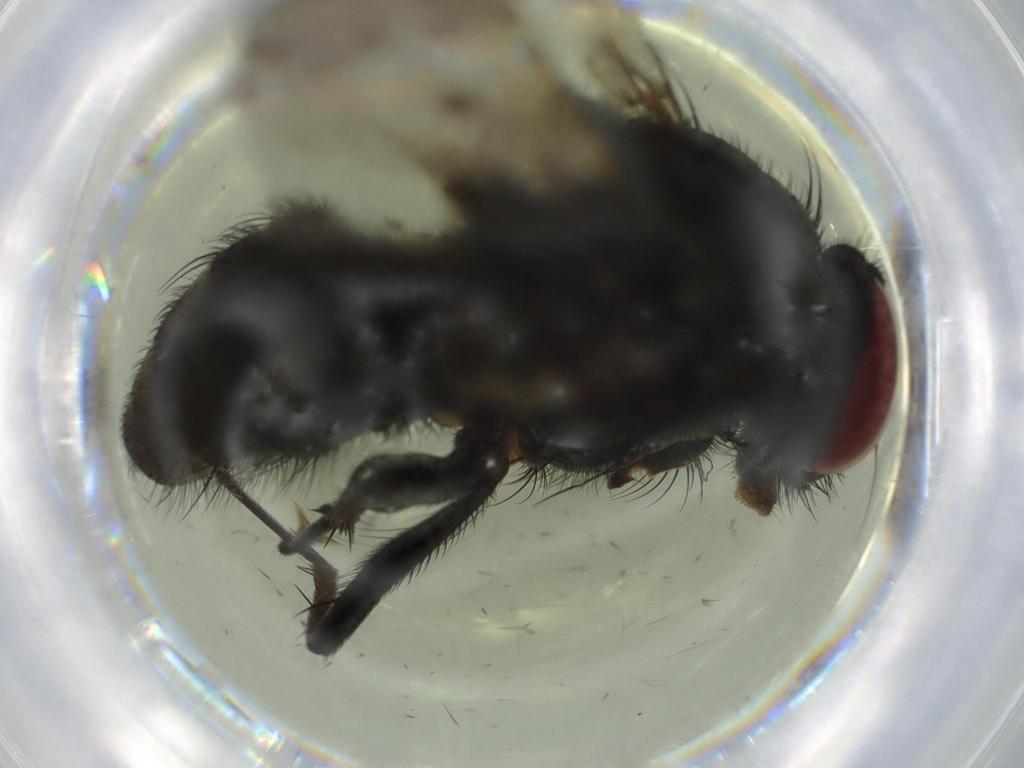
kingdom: Animalia
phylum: Arthropoda
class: Insecta
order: Diptera
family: Muscidae
